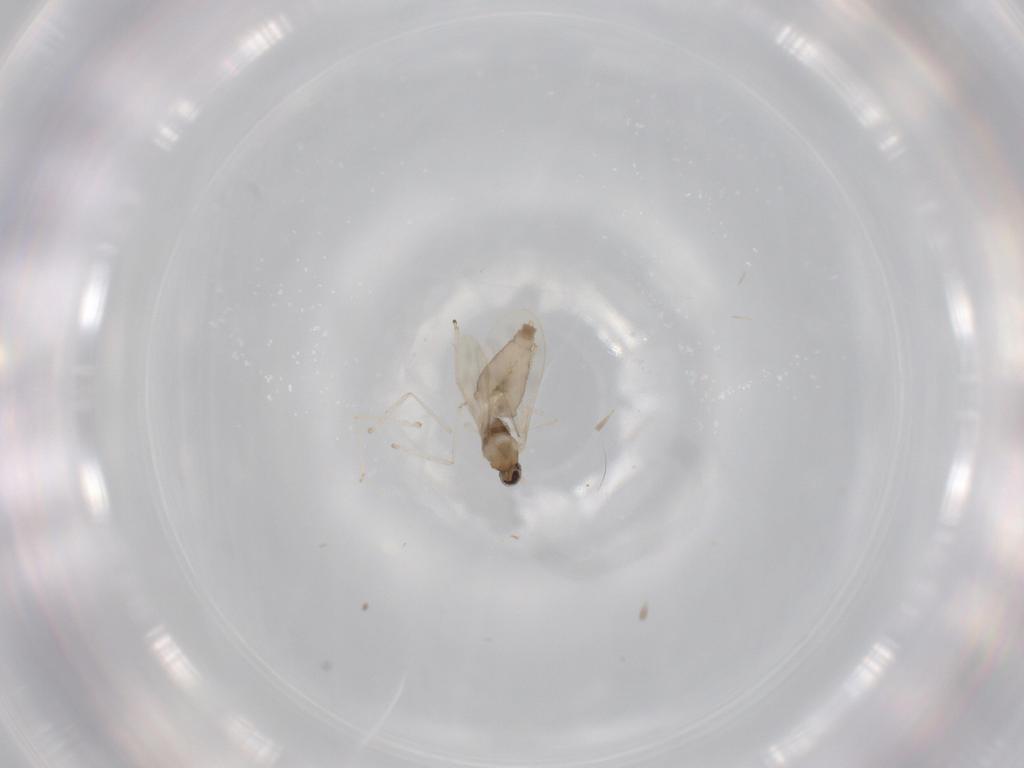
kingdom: Animalia
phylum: Arthropoda
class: Insecta
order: Diptera
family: Cecidomyiidae
